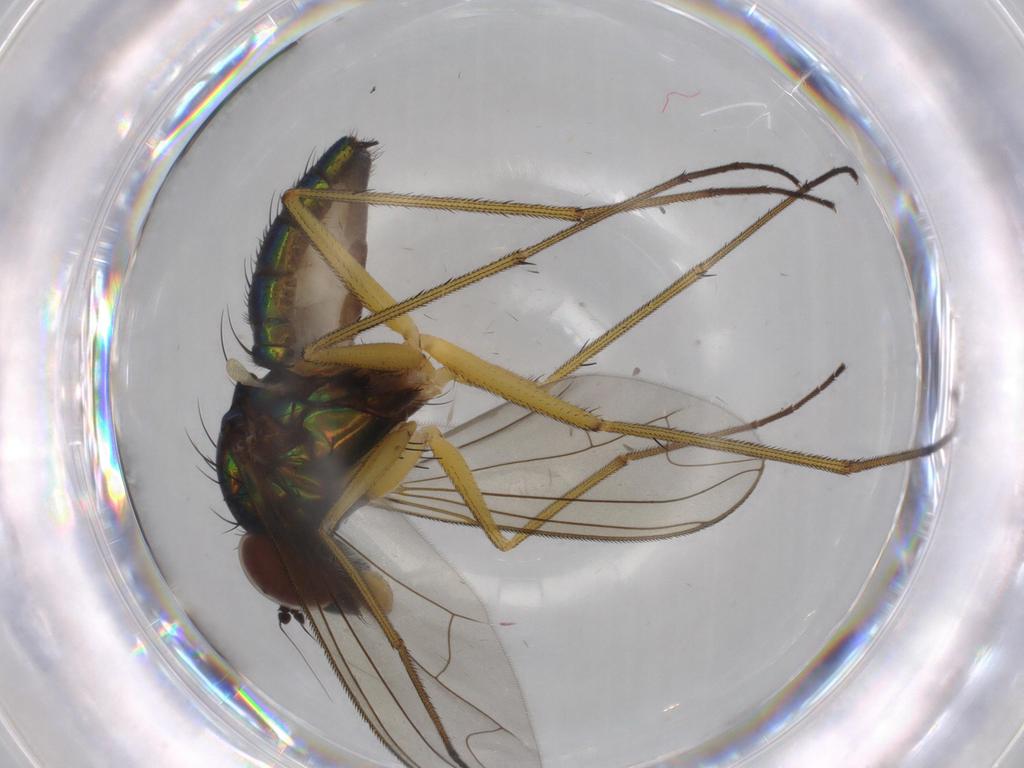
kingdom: Animalia
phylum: Arthropoda
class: Insecta
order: Diptera
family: Dolichopodidae
